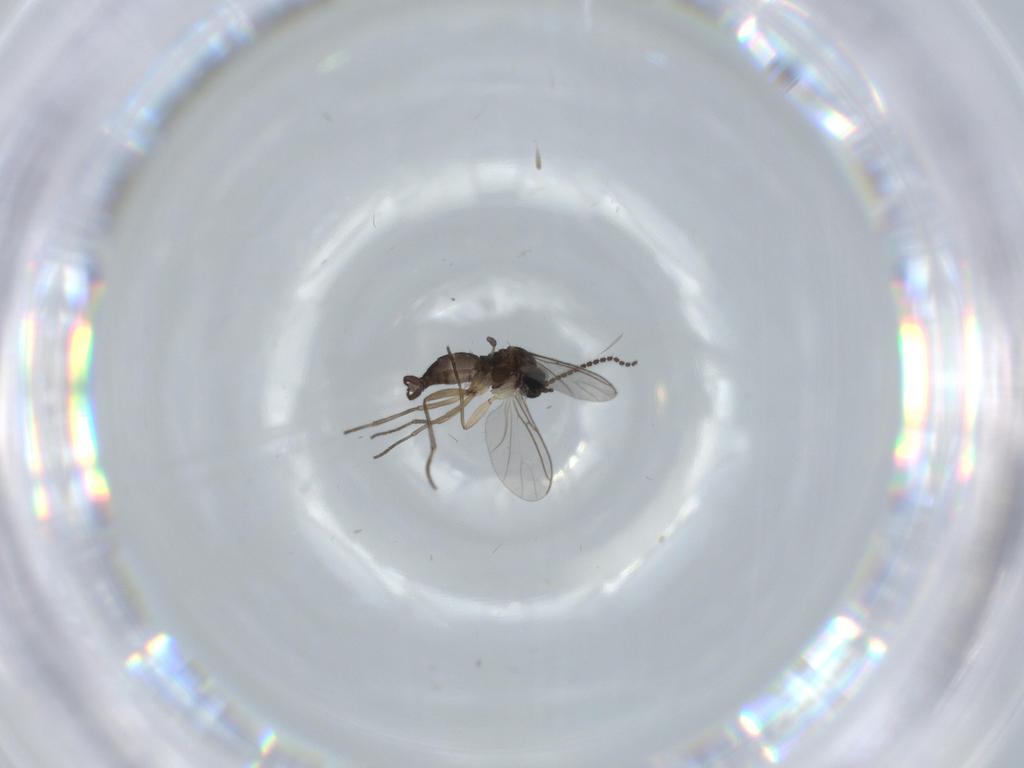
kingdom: Animalia
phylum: Arthropoda
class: Insecta
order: Diptera
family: Sciaridae
